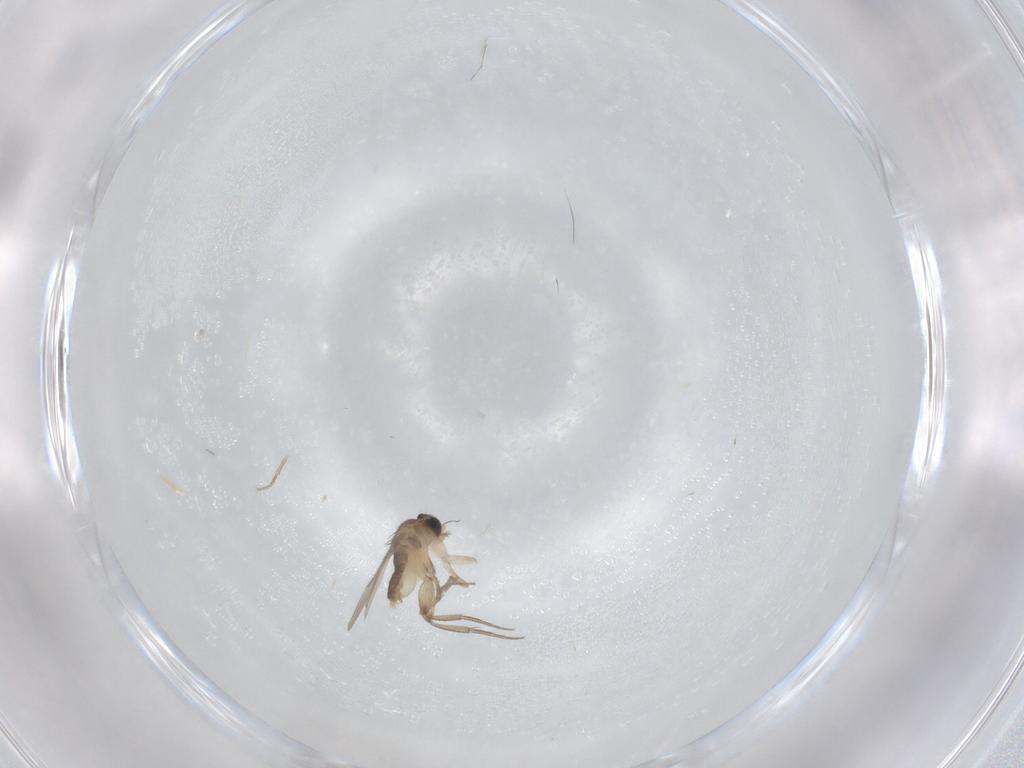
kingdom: Animalia
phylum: Arthropoda
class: Insecta
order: Diptera
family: Phoridae
